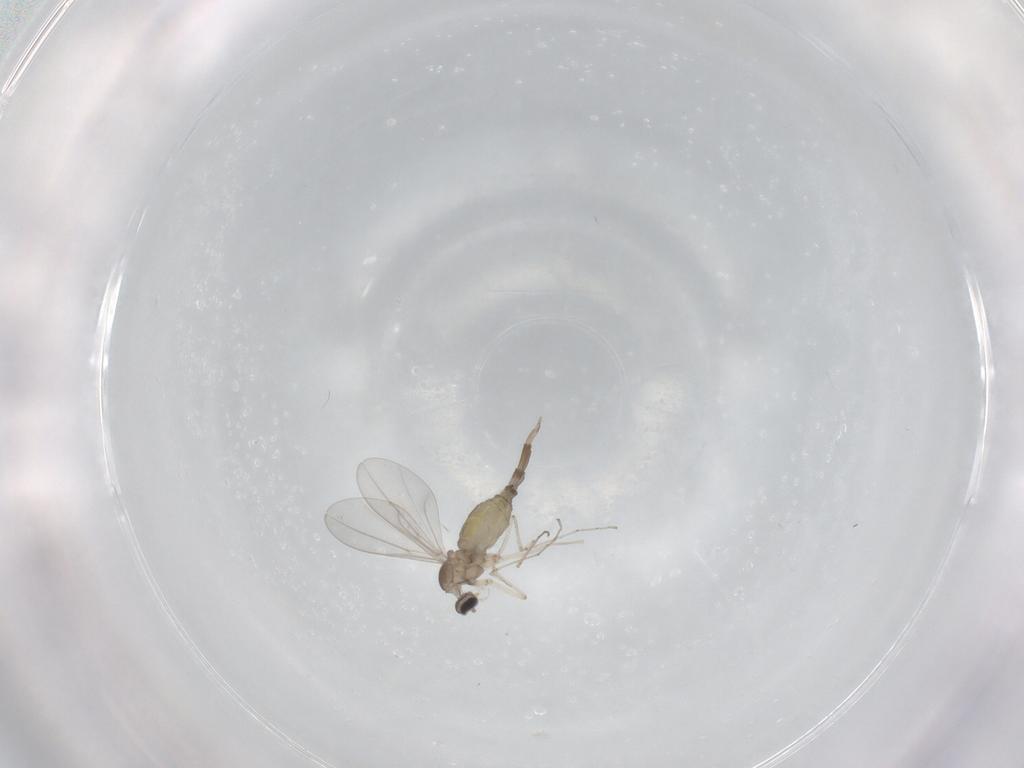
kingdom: Animalia
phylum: Arthropoda
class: Insecta
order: Diptera
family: Cecidomyiidae
